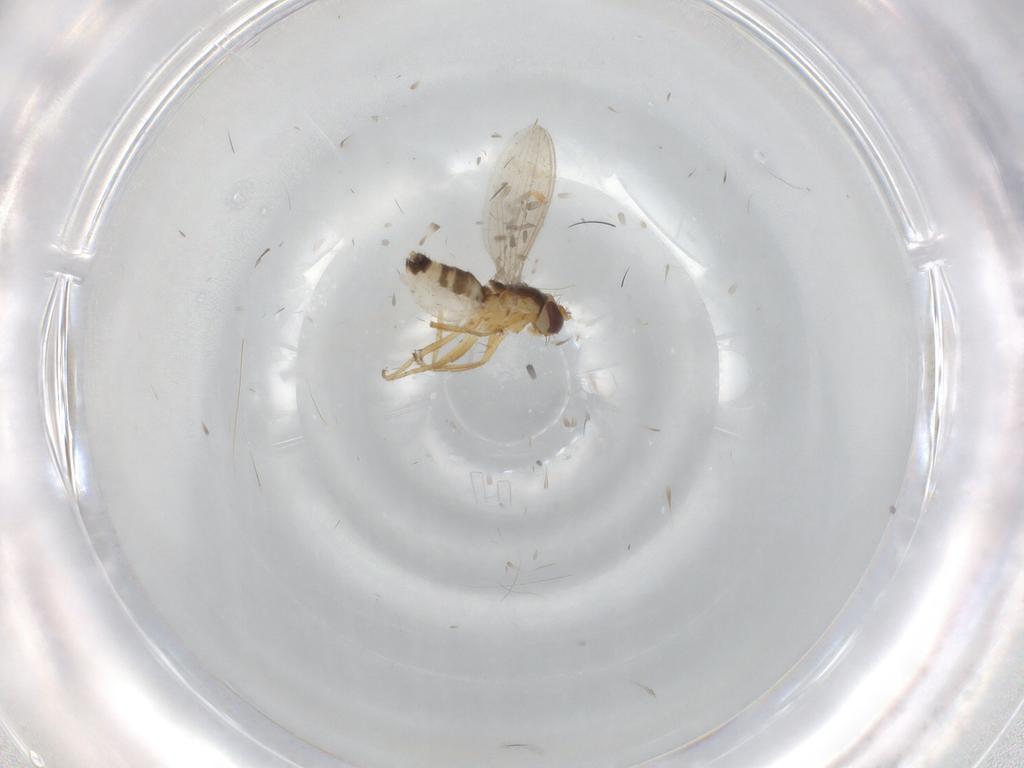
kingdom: Animalia
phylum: Arthropoda
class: Insecta
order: Diptera
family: Periscelididae
